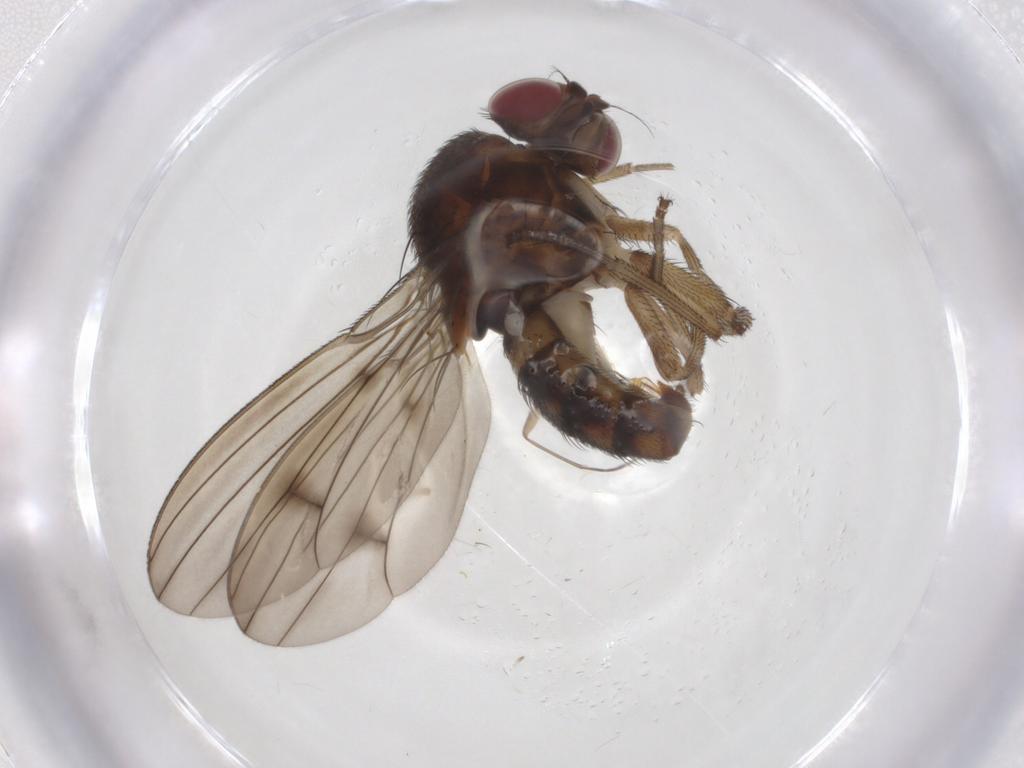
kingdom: Animalia
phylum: Arthropoda
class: Insecta
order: Diptera
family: Curtonotidae
